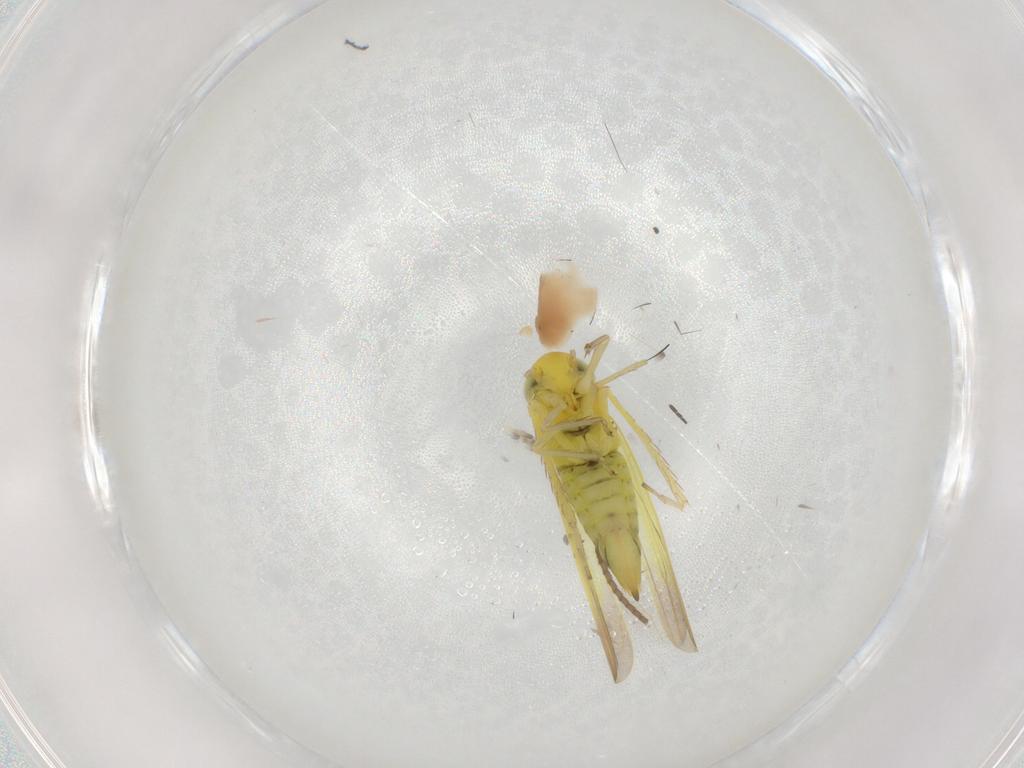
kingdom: Animalia
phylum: Arthropoda
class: Insecta
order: Hemiptera
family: Cicadellidae
